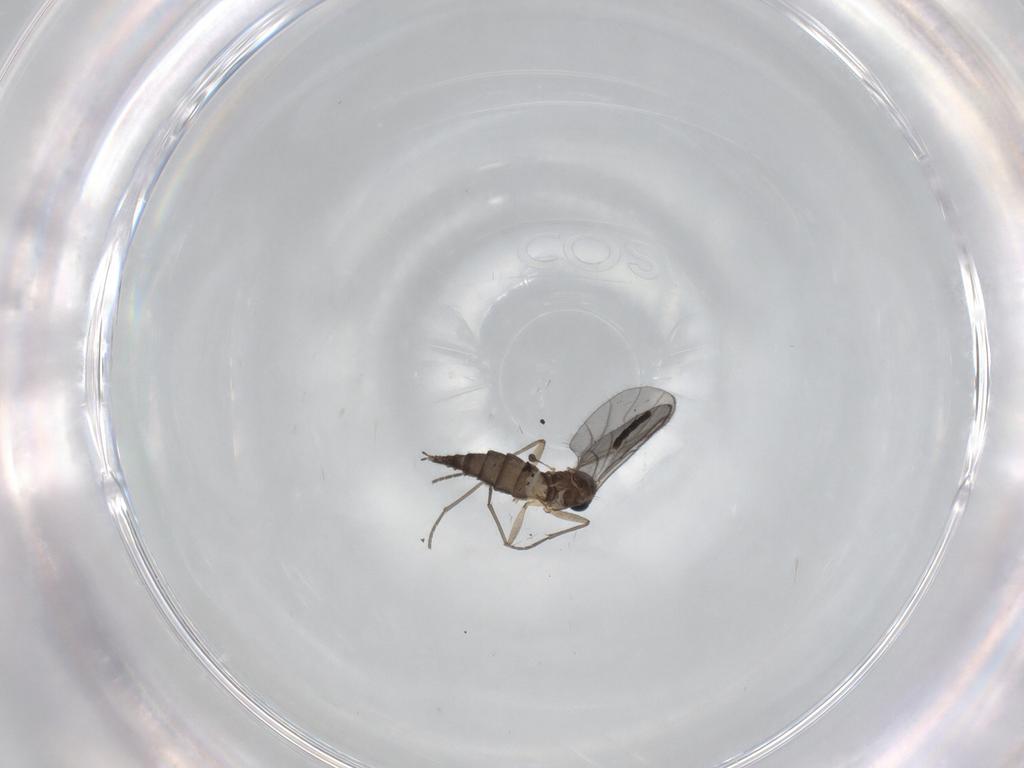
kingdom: Animalia
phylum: Arthropoda
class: Insecta
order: Diptera
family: Sciaridae
